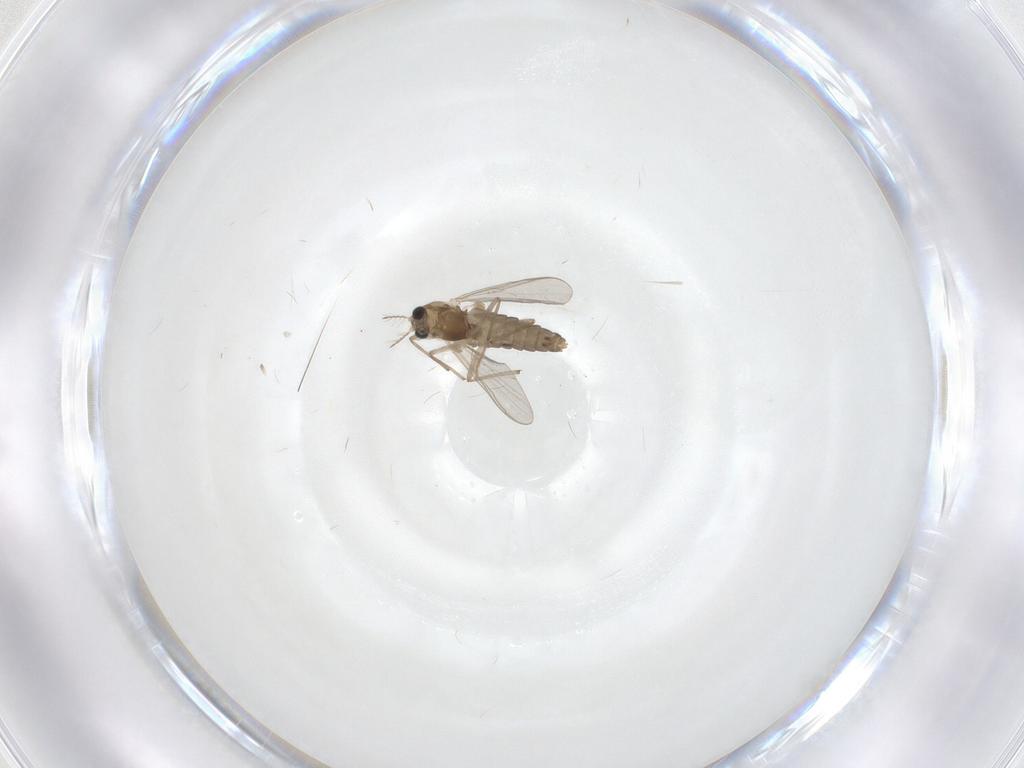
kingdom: Animalia
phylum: Arthropoda
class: Insecta
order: Diptera
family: Chironomidae
